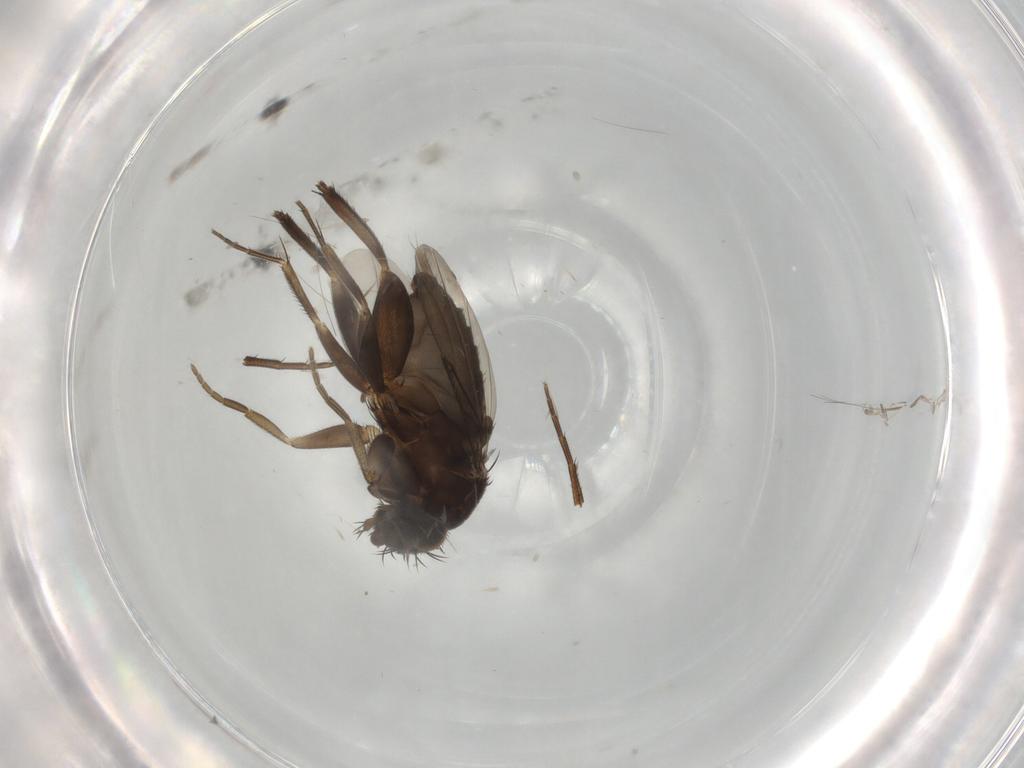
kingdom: Animalia
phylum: Arthropoda
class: Insecta
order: Diptera
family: Phoridae
